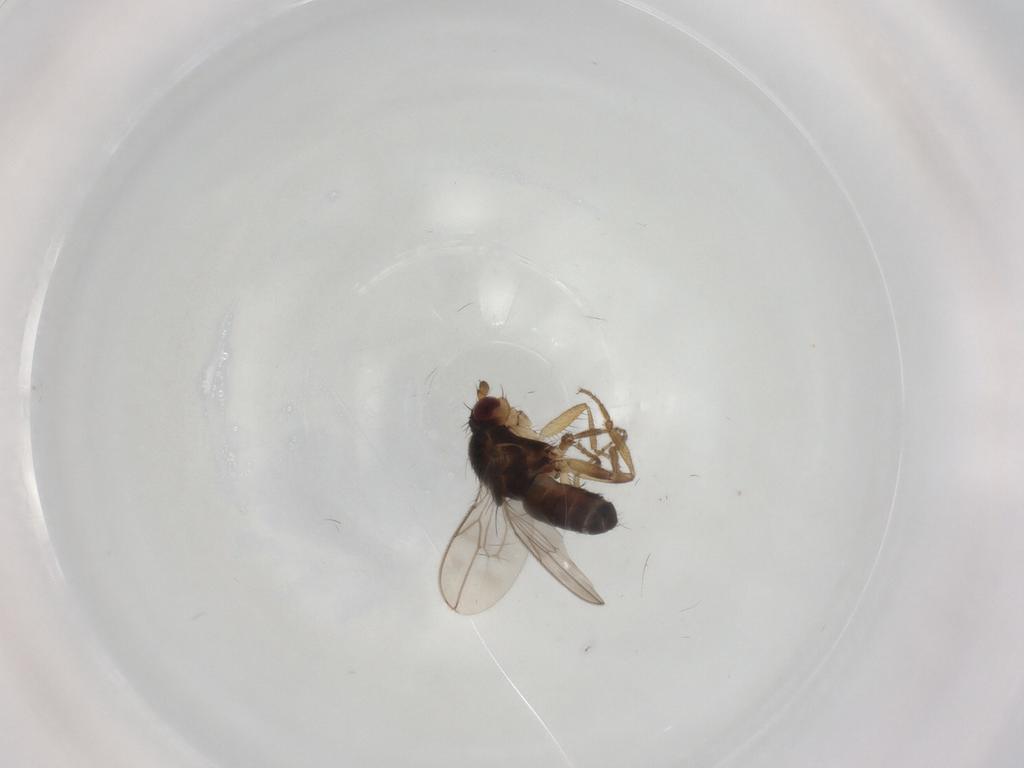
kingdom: Animalia
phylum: Arthropoda
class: Insecta
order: Diptera
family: Sphaeroceridae
